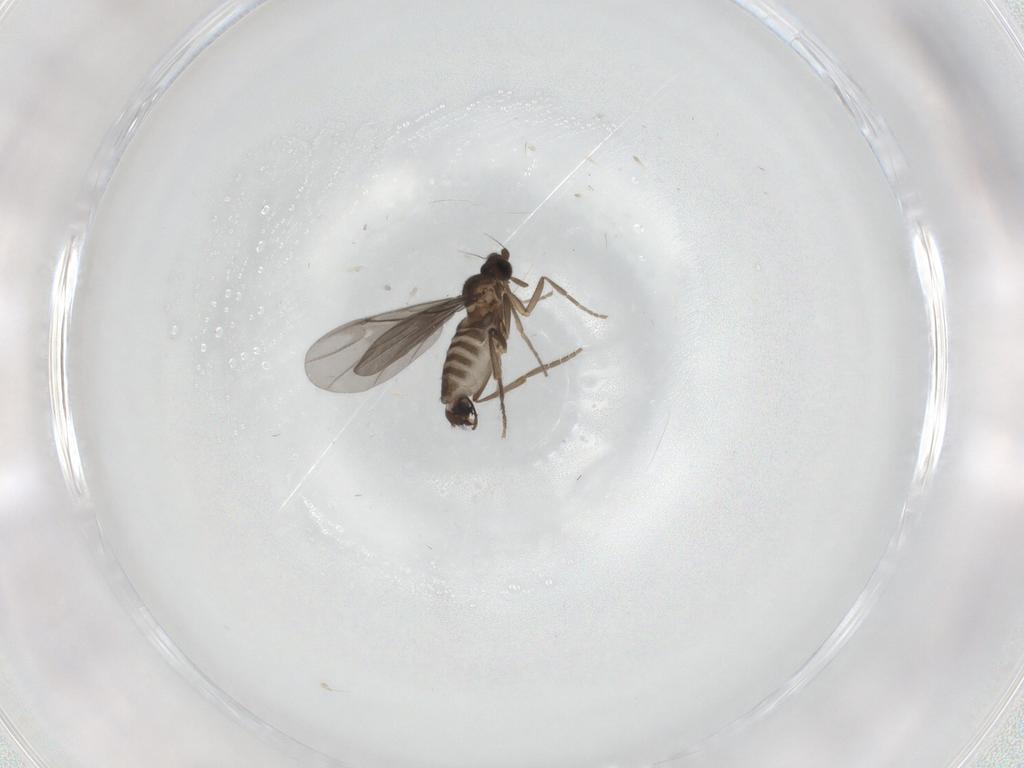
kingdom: Animalia
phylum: Arthropoda
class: Insecta
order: Diptera
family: Phoridae
